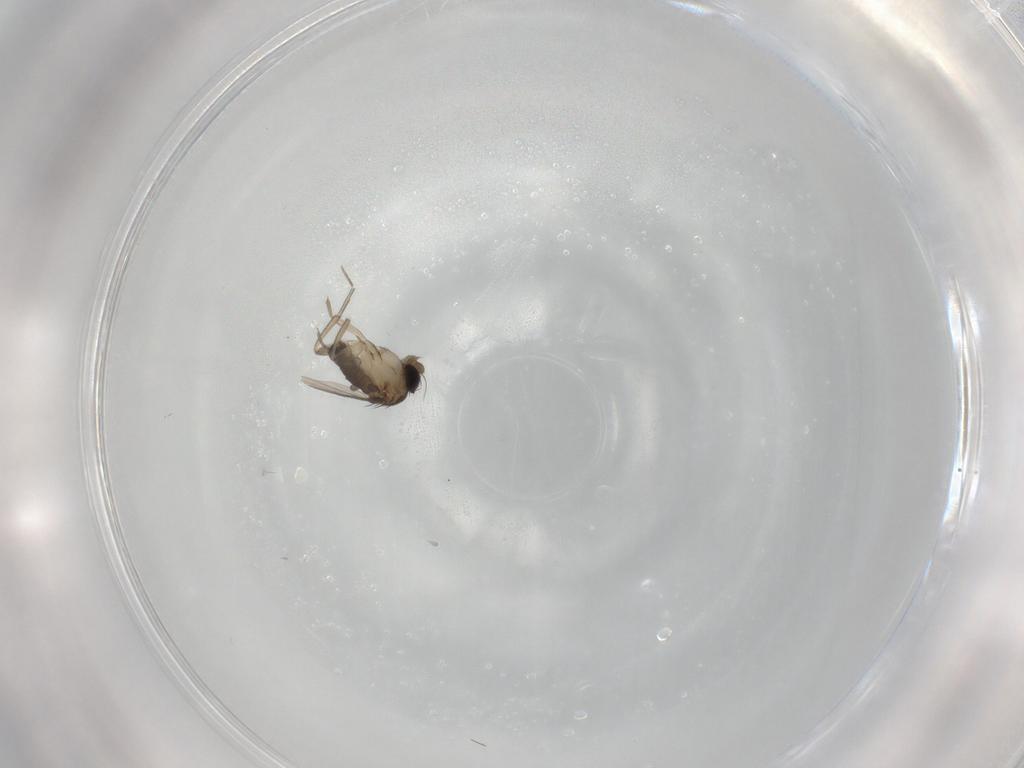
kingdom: Animalia
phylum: Arthropoda
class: Insecta
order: Diptera
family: Phoridae
